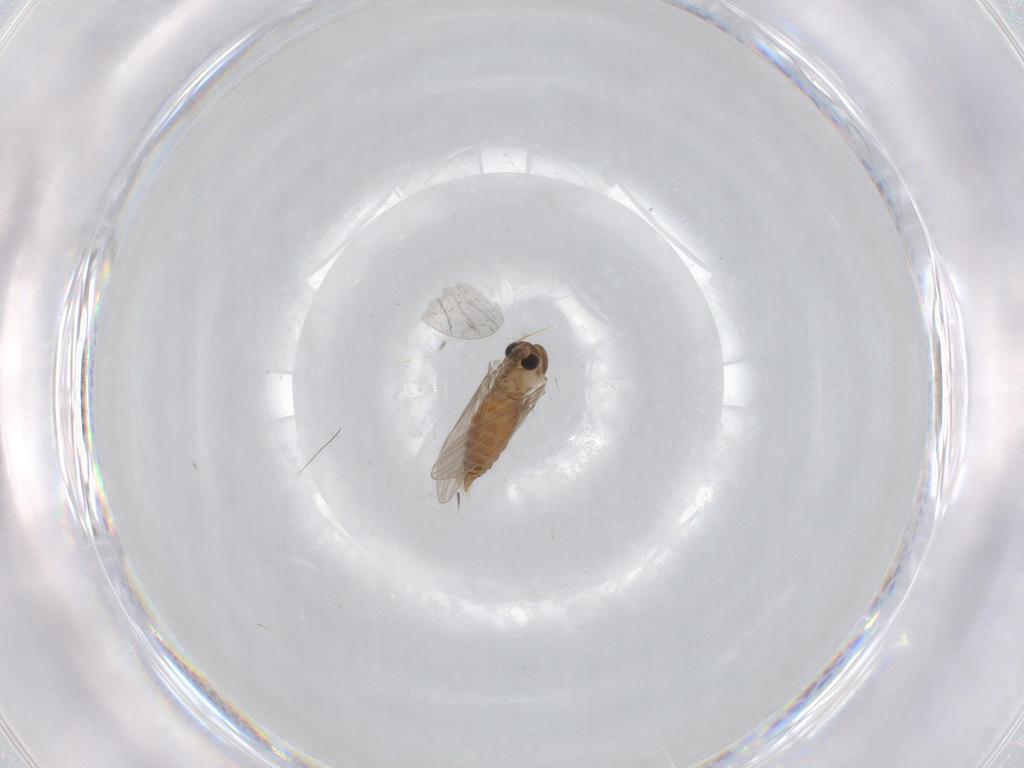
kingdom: Animalia
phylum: Arthropoda
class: Insecta
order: Diptera
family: Psychodidae
